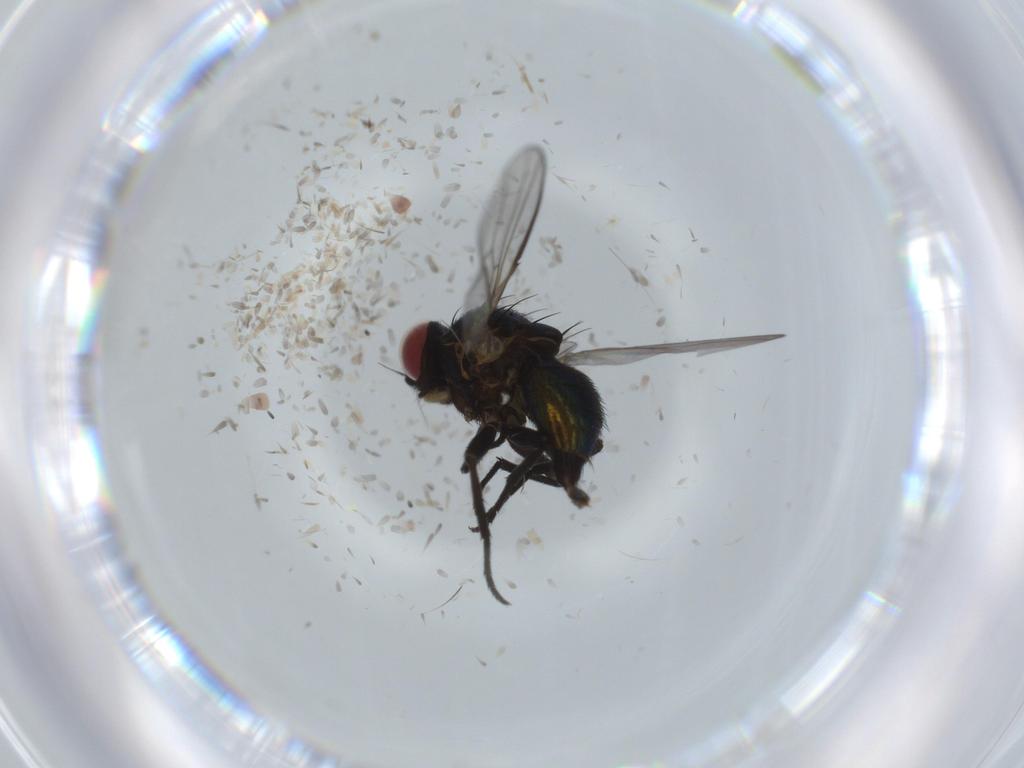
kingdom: Animalia
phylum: Arthropoda
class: Insecta
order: Diptera
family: Agromyzidae
